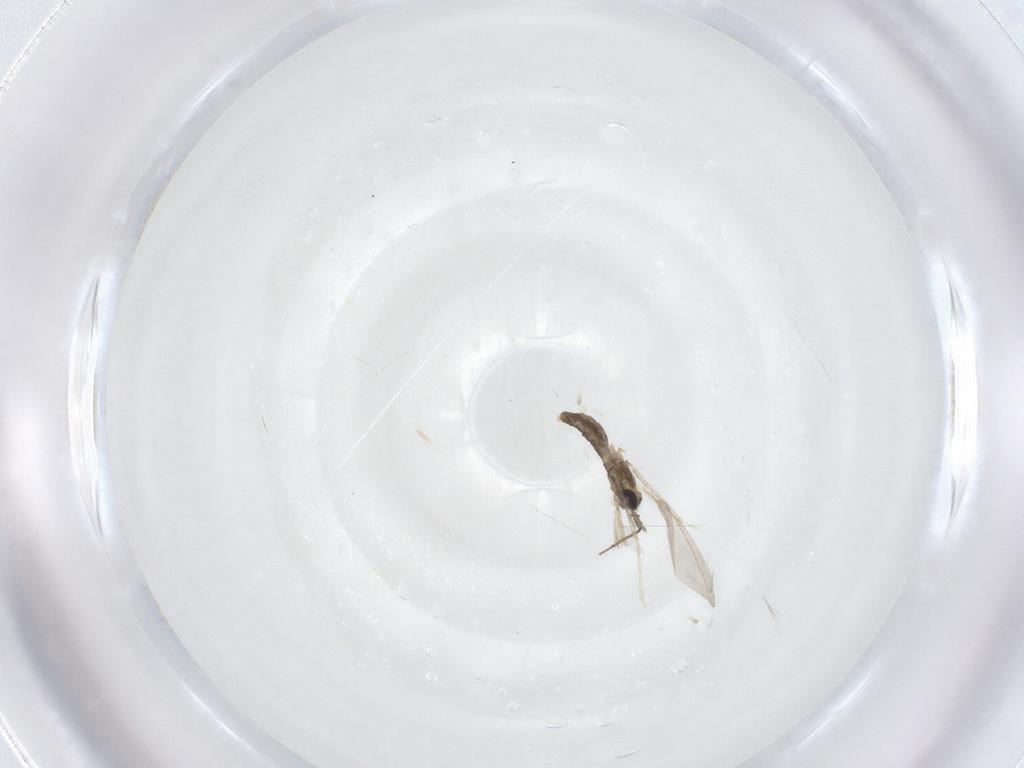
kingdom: Animalia
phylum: Arthropoda
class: Insecta
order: Diptera
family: Cecidomyiidae
